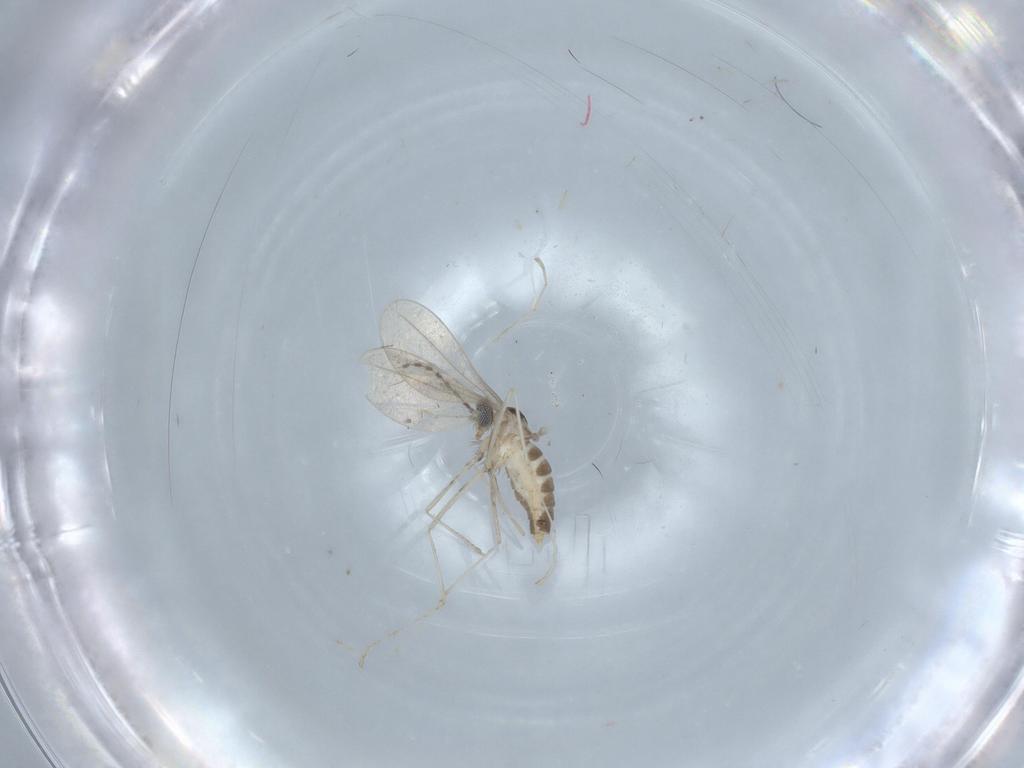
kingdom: Animalia
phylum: Arthropoda
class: Insecta
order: Diptera
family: Cecidomyiidae
